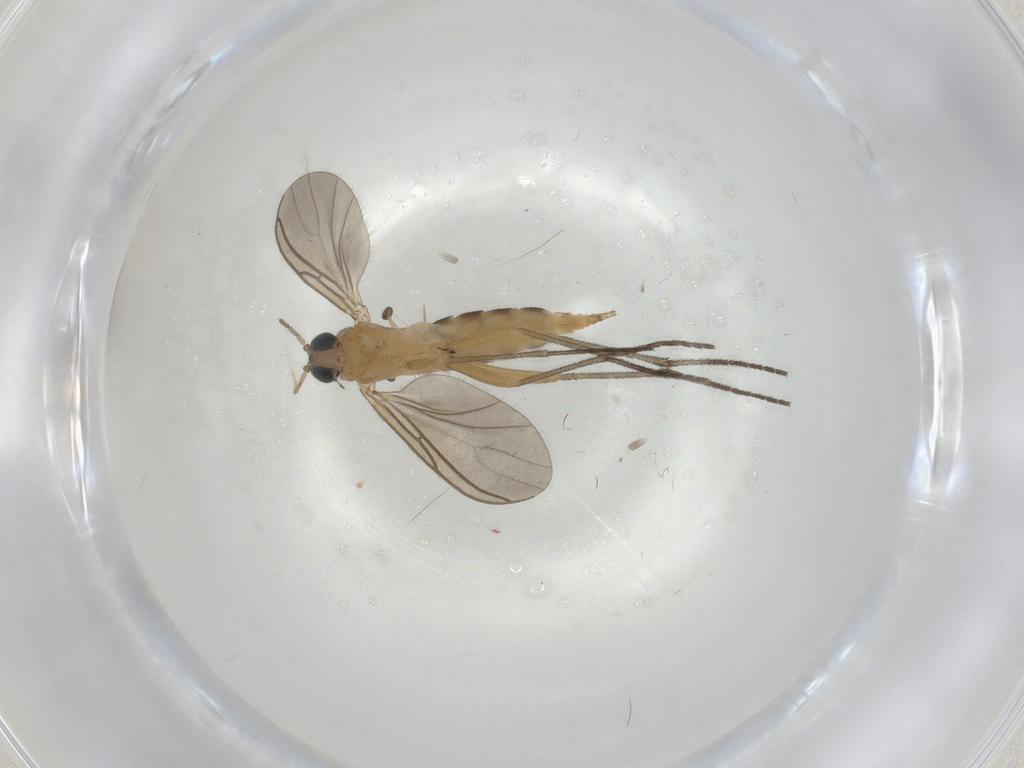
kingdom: Animalia
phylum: Arthropoda
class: Insecta
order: Diptera
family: Sciaridae
